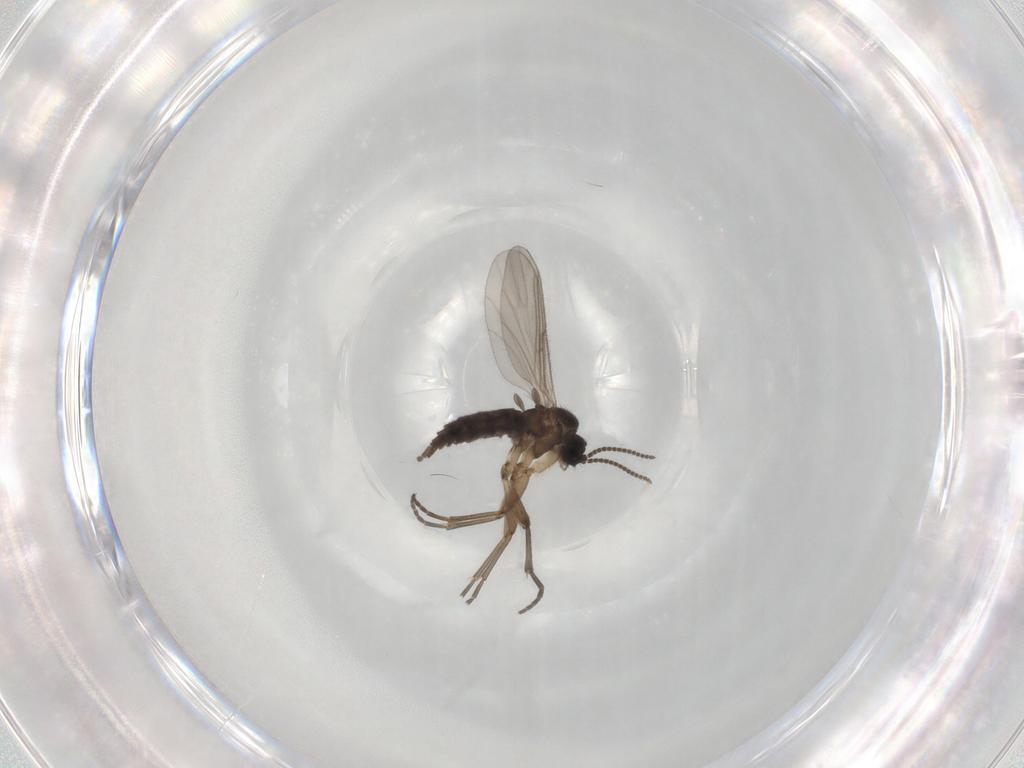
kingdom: Animalia
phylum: Arthropoda
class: Insecta
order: Diptera
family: Sciaridae
